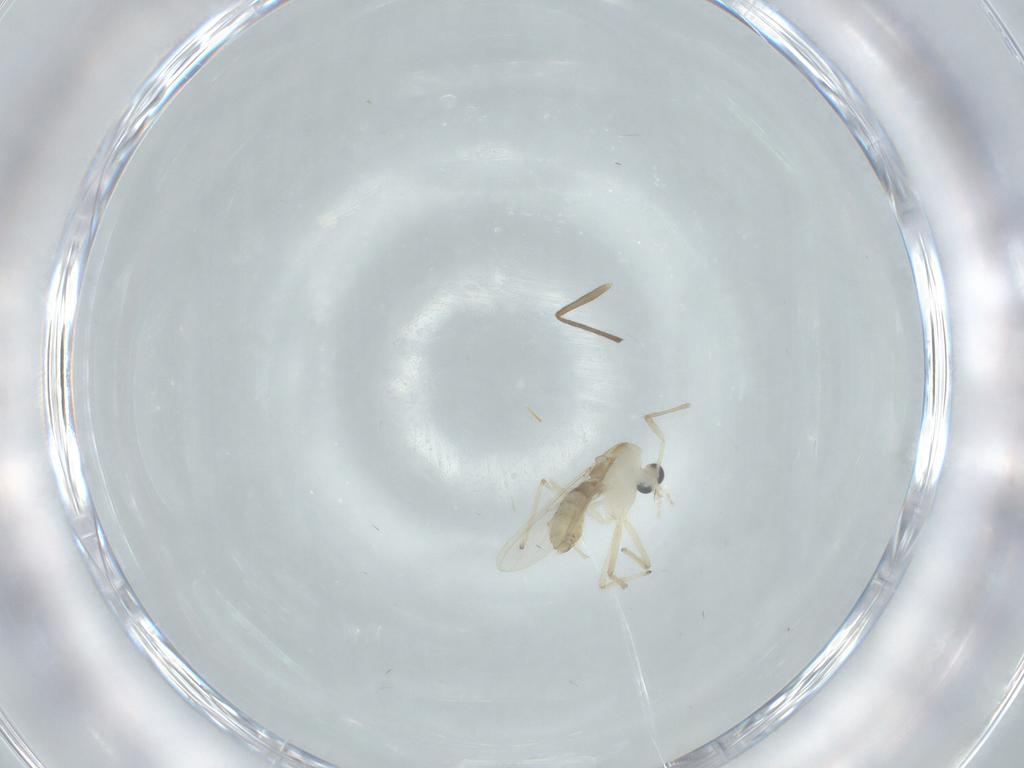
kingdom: Animalia
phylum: Arthropoda
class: Insecta
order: Diptera
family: Chironomidae
